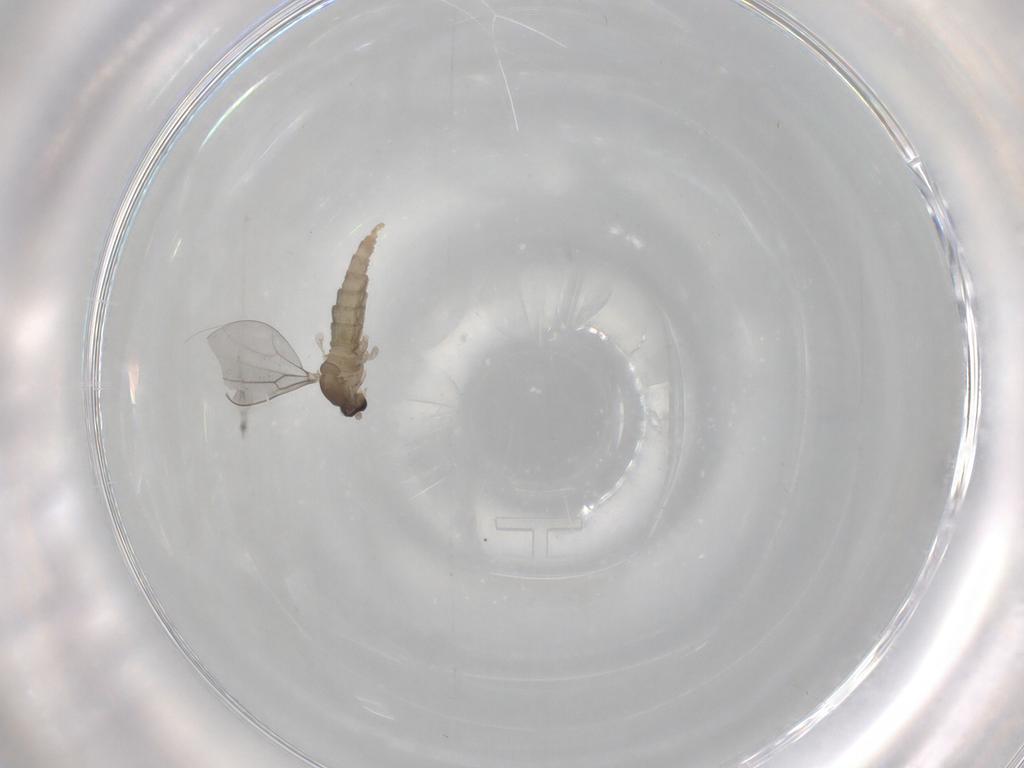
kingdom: Animalia
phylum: Arthropoda
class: Insecta
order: Diptera
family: Cecidomyiidae
